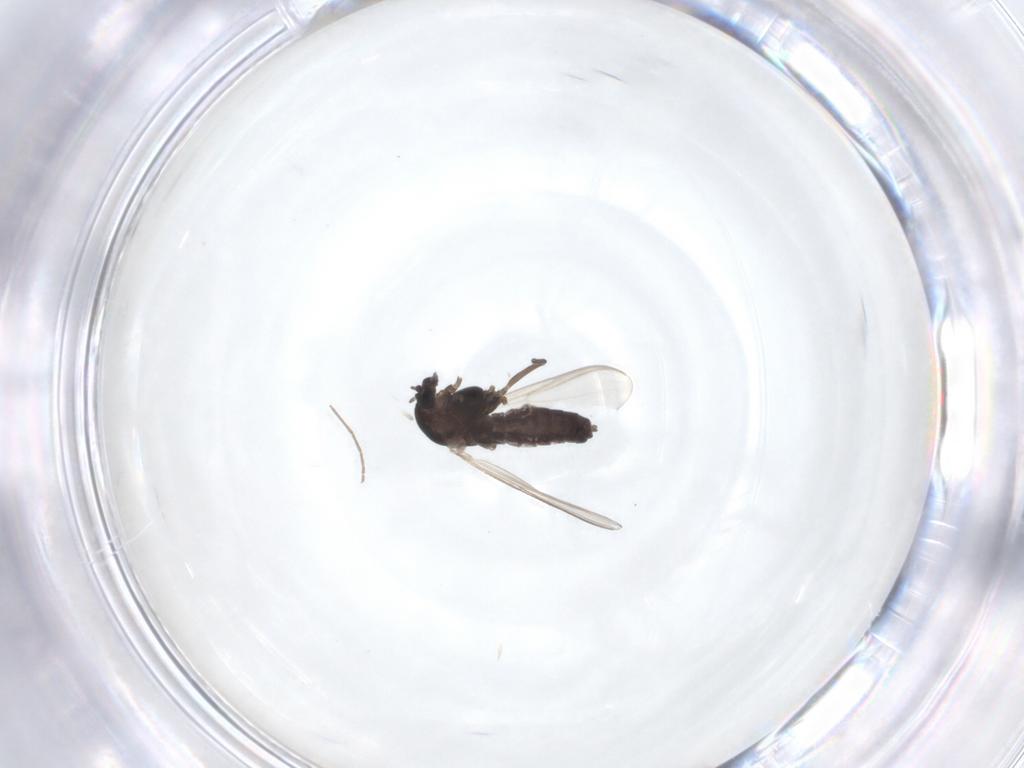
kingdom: Animalia
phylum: Arthropoda
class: Insecta
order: Diptera
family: Chironomidae
